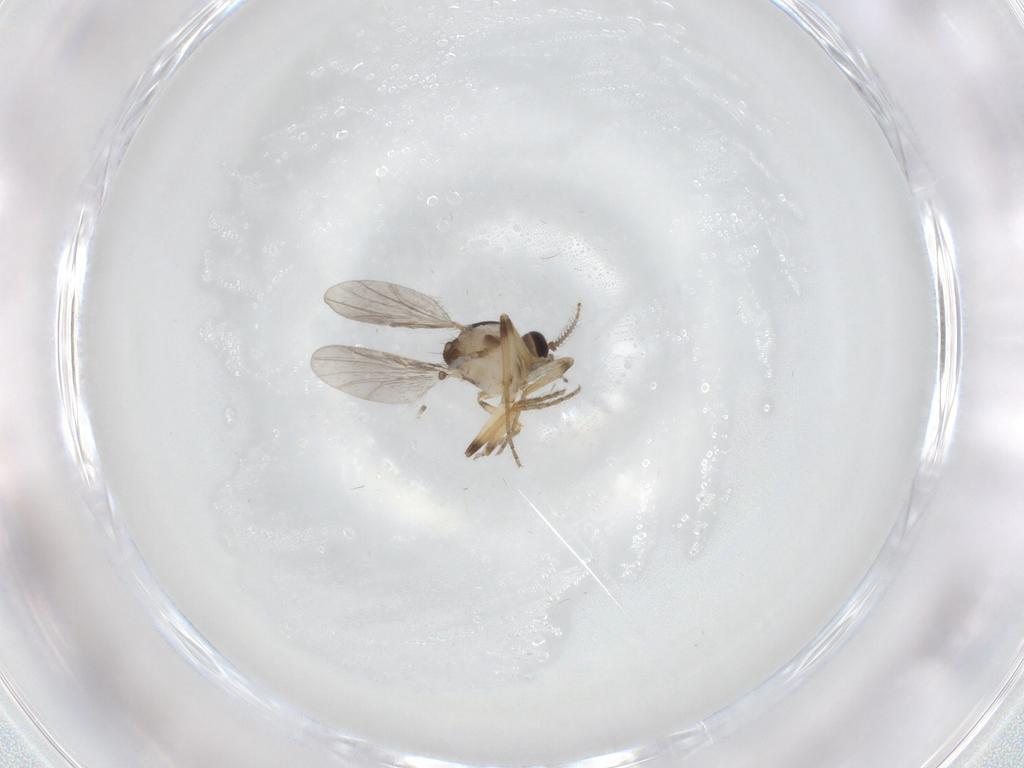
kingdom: Animalia
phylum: Arthropoda
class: Insecta
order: Diptera
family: Ceratopogonidae
